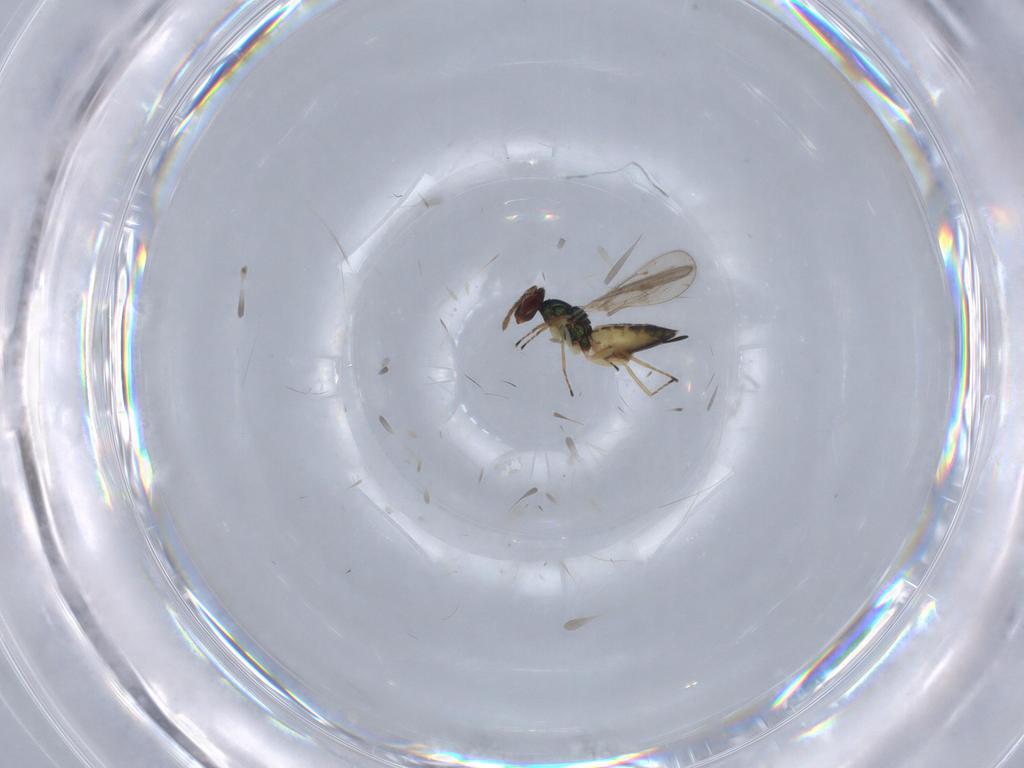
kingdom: Animalia
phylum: Arthropoda
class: Insecta
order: Hymenoptera
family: Eulophidae
